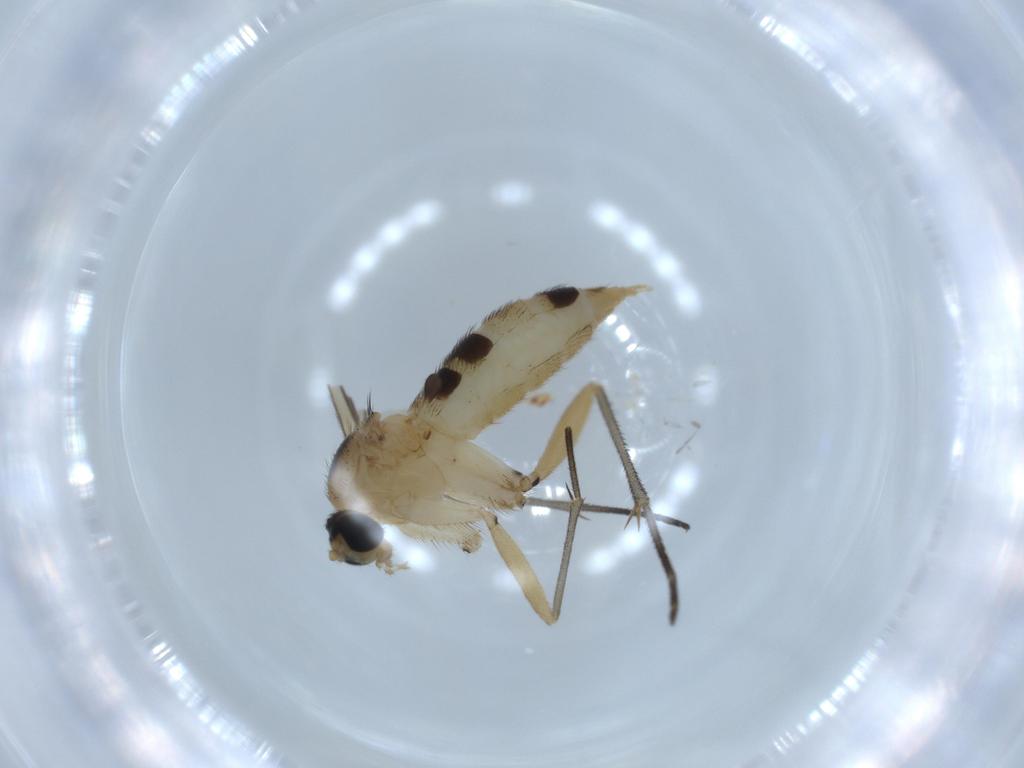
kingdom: Animalia
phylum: Arthropoda
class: Insecta
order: Diptera
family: Sciaridae
